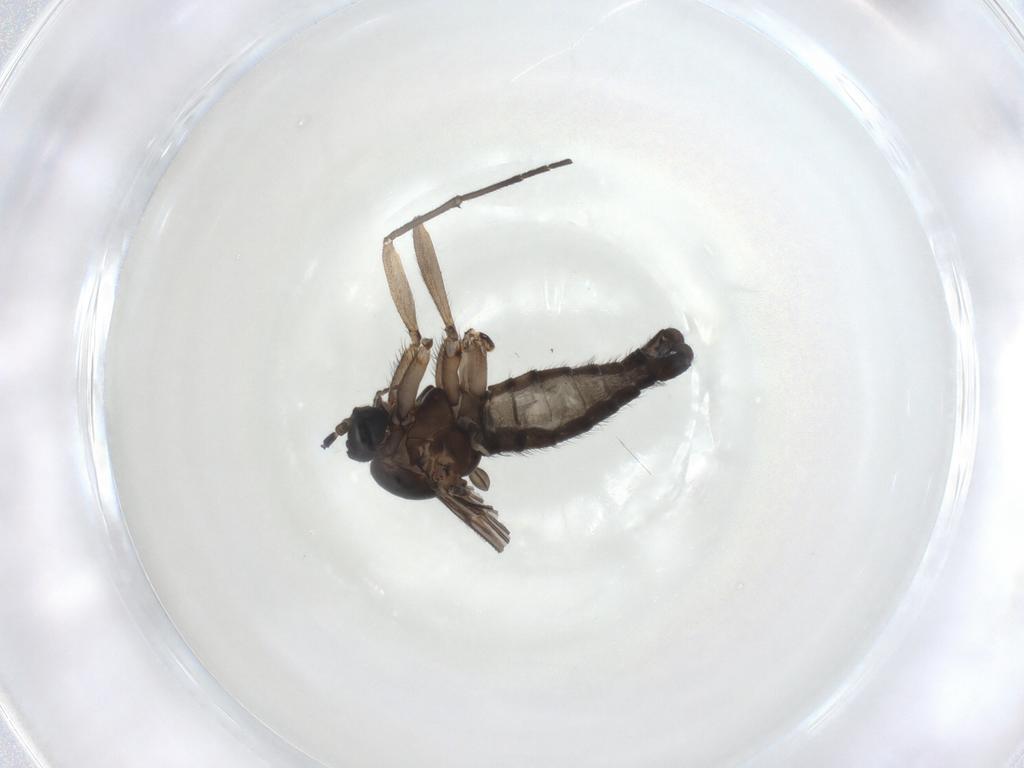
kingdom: Animalia
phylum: Arthropoda
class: Insecta
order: Diptera
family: Sciaridae
